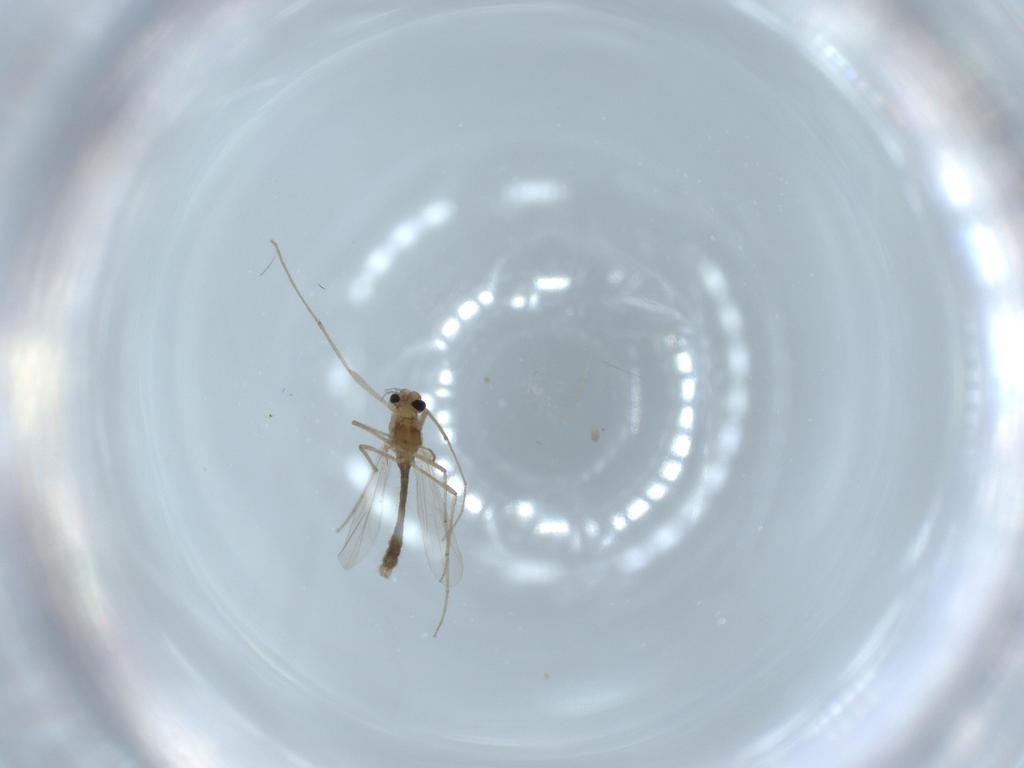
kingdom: Animalia
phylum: Arthropoda
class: Insecta
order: Diptera
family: Chironomidae
